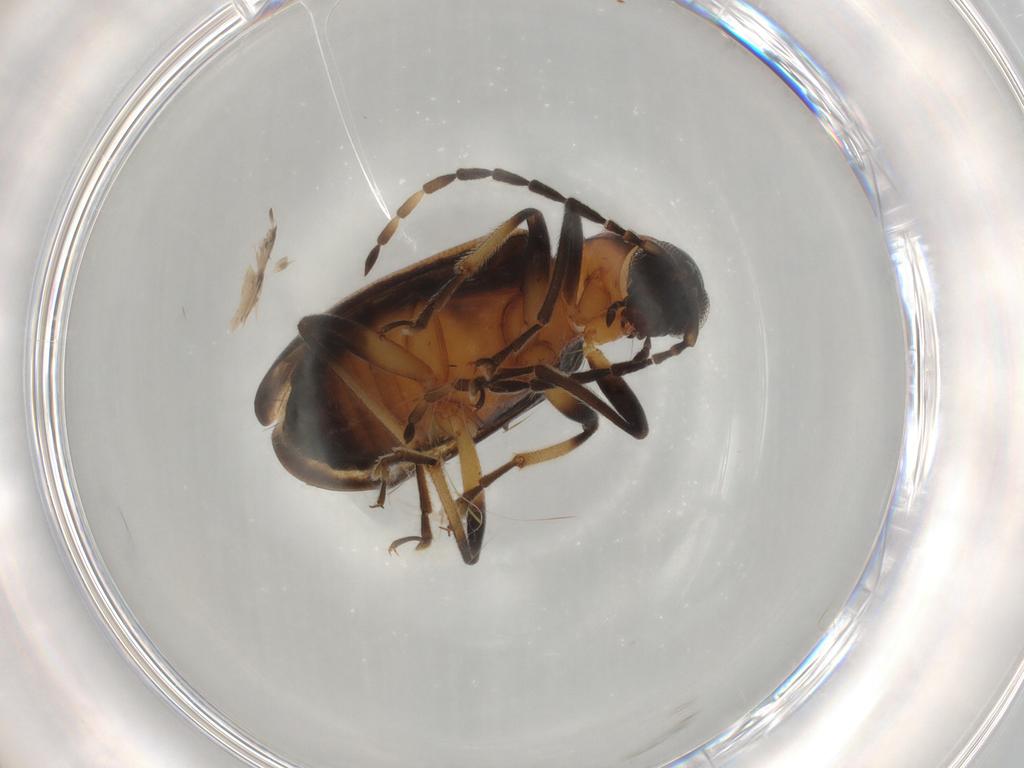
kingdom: Animalia
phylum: Arthropoda
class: Insecta
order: Coleoptera
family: Chrysomelidae
